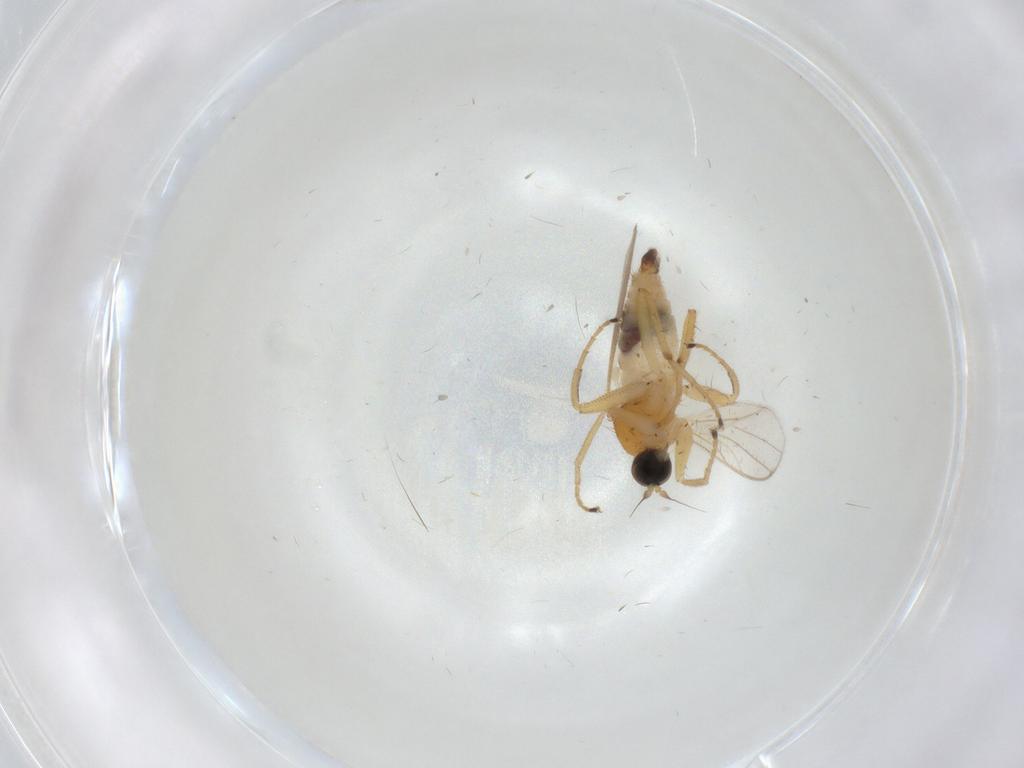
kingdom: Animalia
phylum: Arthropoda
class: Insecta
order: Diptera
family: Hybotidae
